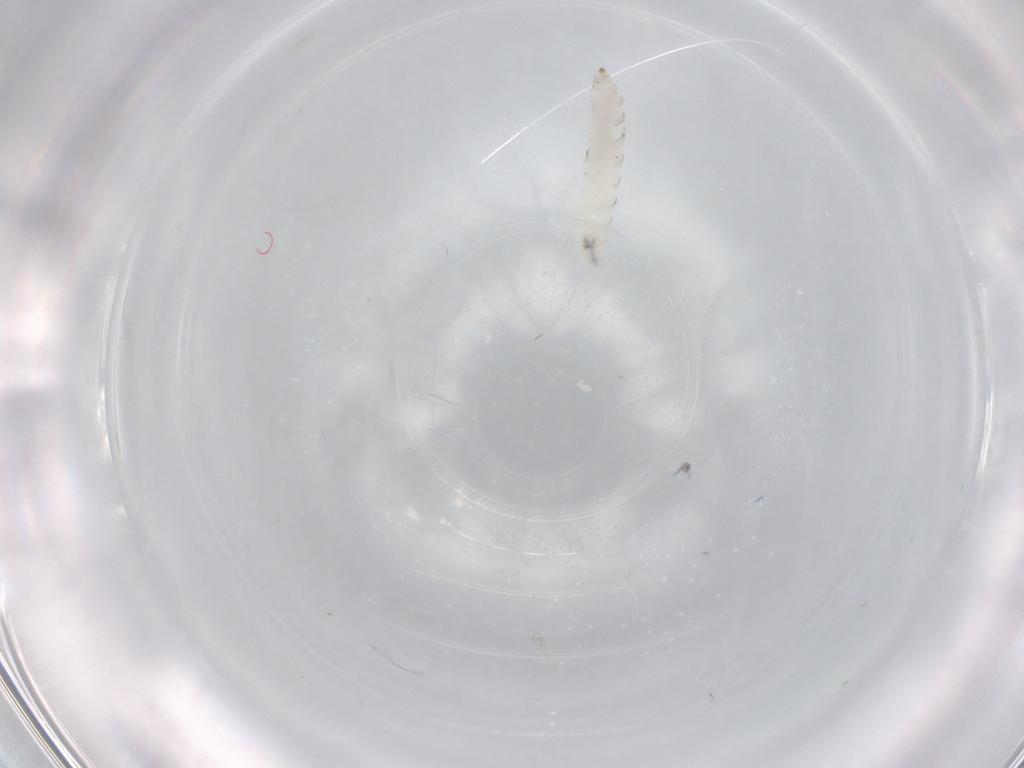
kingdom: Animalia
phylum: Arthropoda
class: Insecta
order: Diptera
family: Drosophilidae
